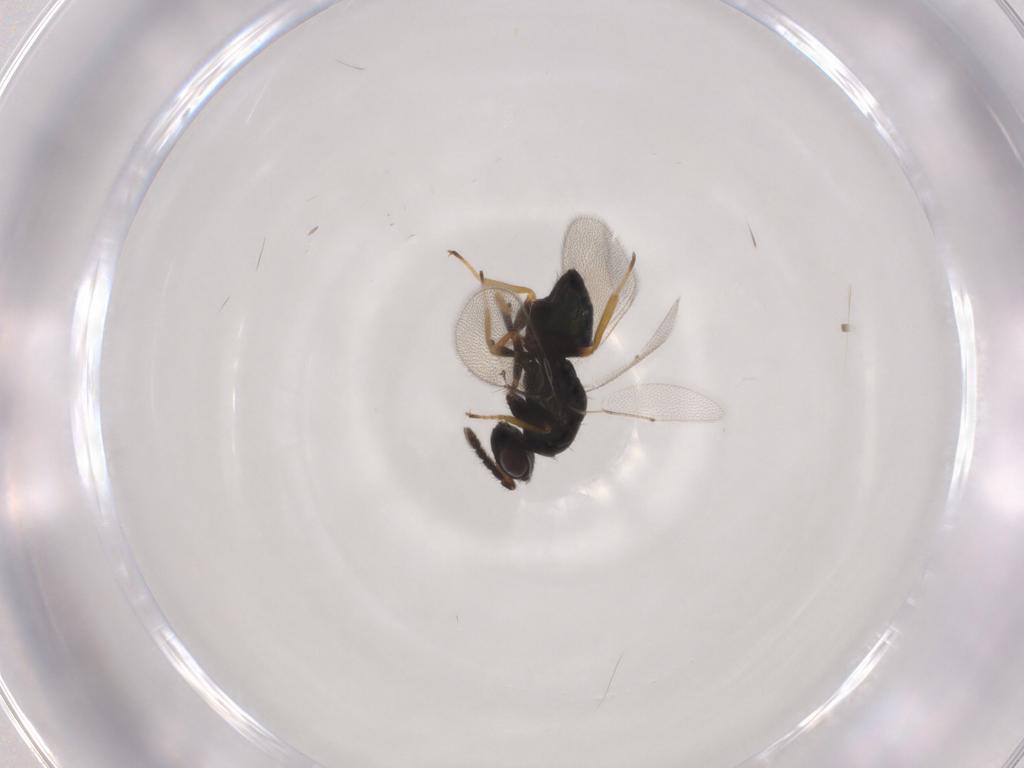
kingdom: Animalia
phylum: Arthropoda
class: Insecta
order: Hymenoptera
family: Eulophidae
